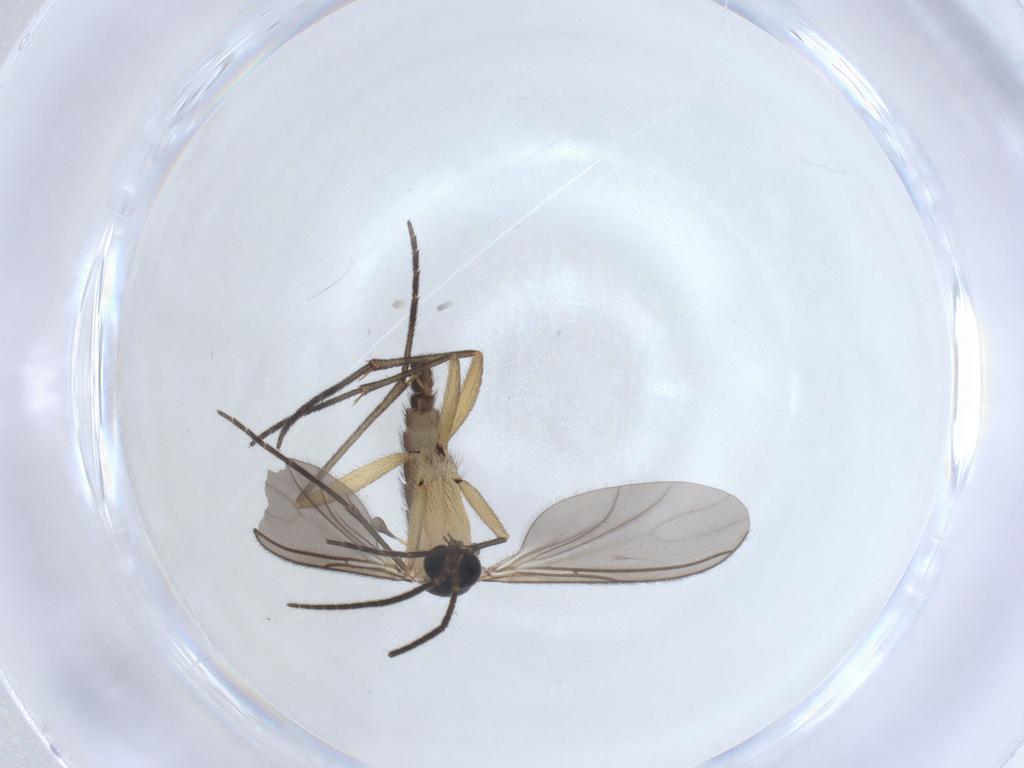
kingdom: Animalia
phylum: Arthropoda
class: Insecta
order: Diptera
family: Sciaridae
